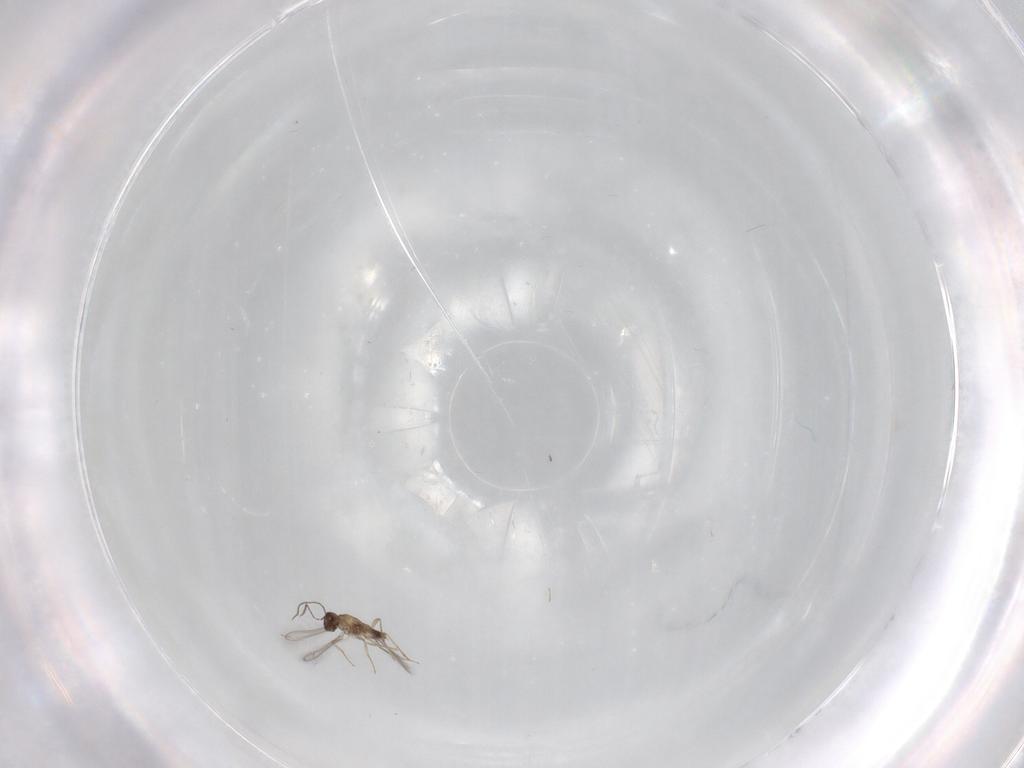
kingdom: Animalia
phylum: Arthropoda
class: Insecta
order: Hymenoptera
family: Mymaridae
